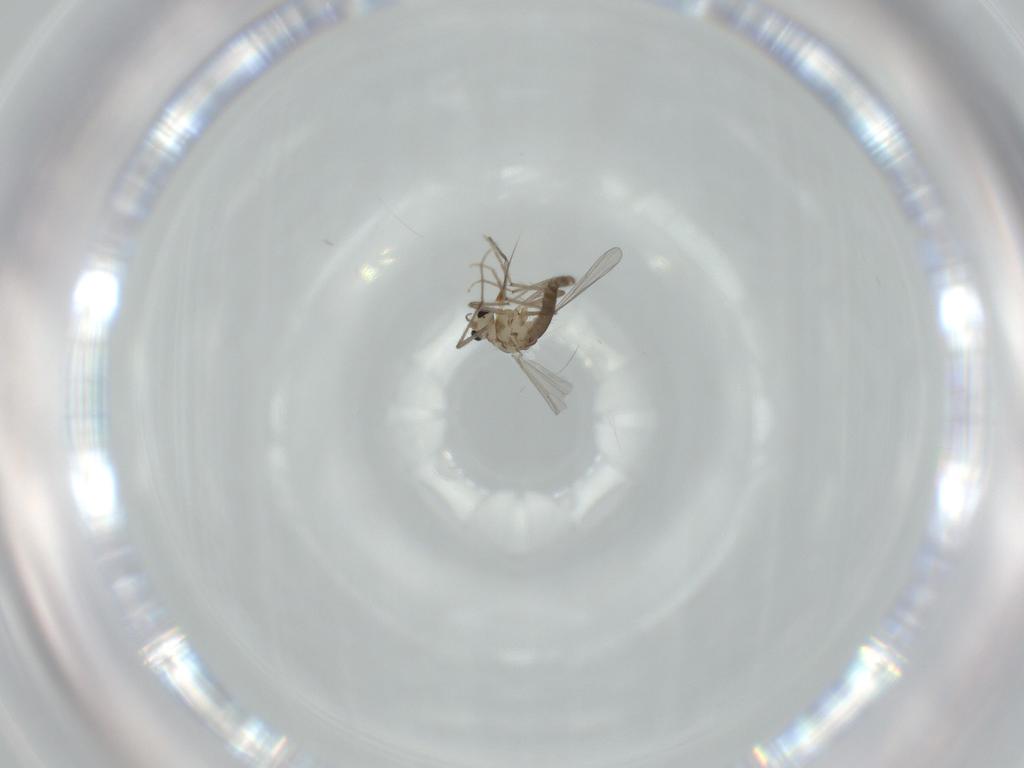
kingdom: Animalia
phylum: Arthropoda
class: Insecta
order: Diptera
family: Chironomidae
